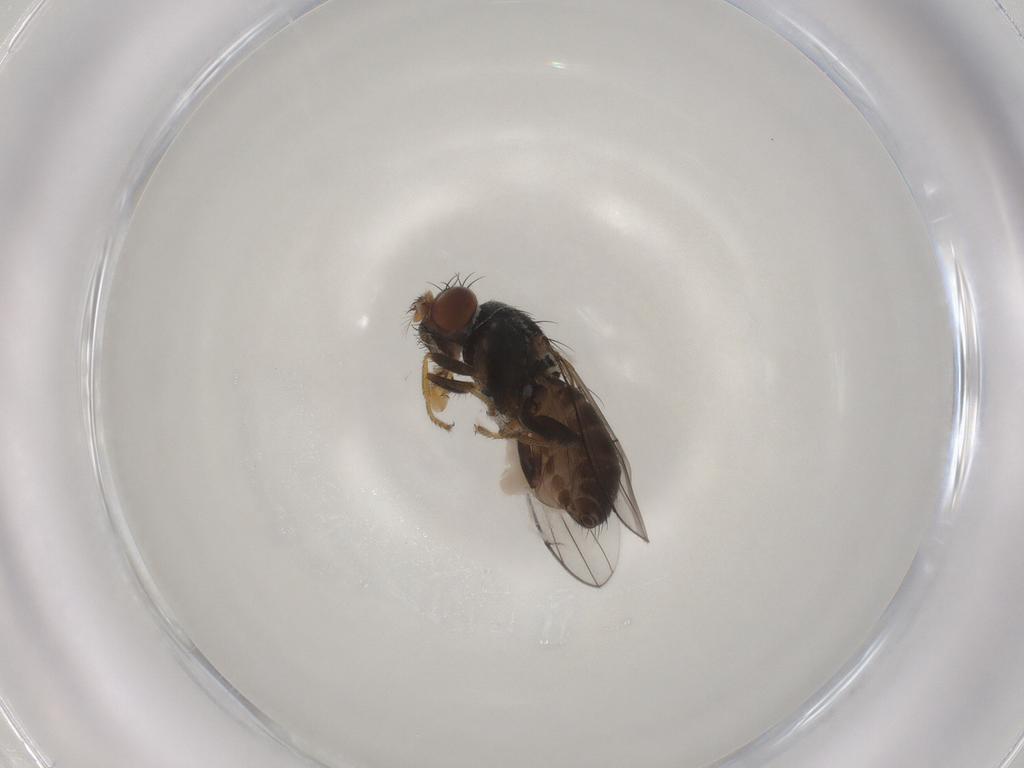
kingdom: Animalia
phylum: Arthropoda
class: Insecta
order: Diptera
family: Ephydridae
